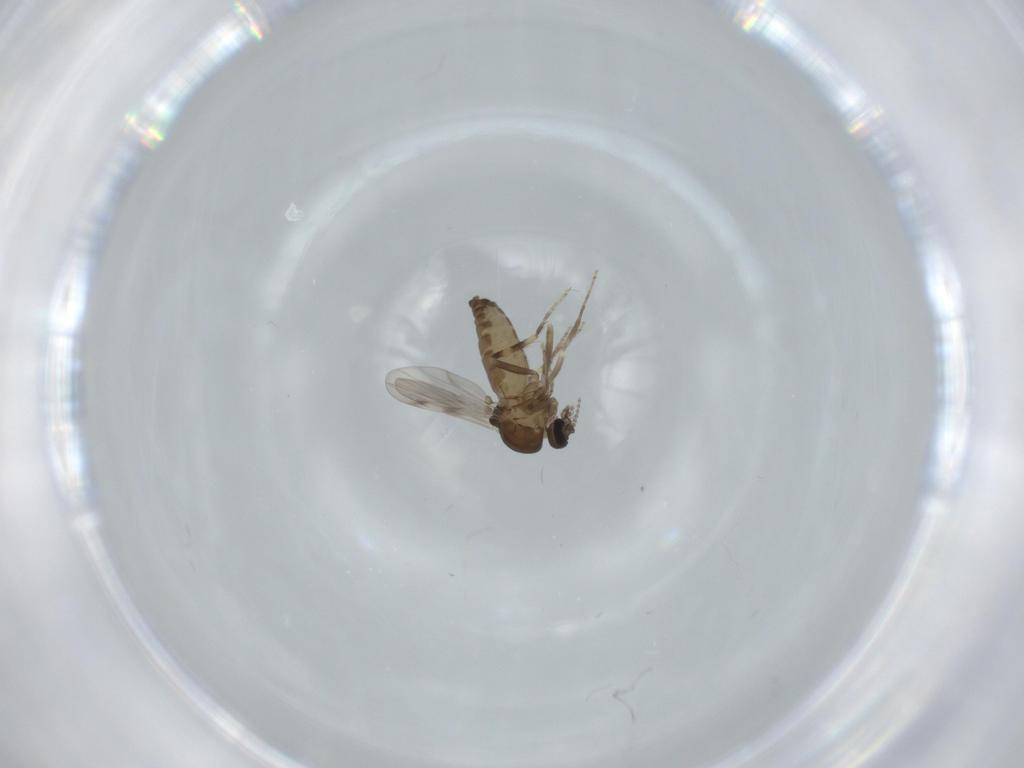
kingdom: Animalia
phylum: Arthropoda
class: Insecta
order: Diptera
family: Ceratopogonidae
